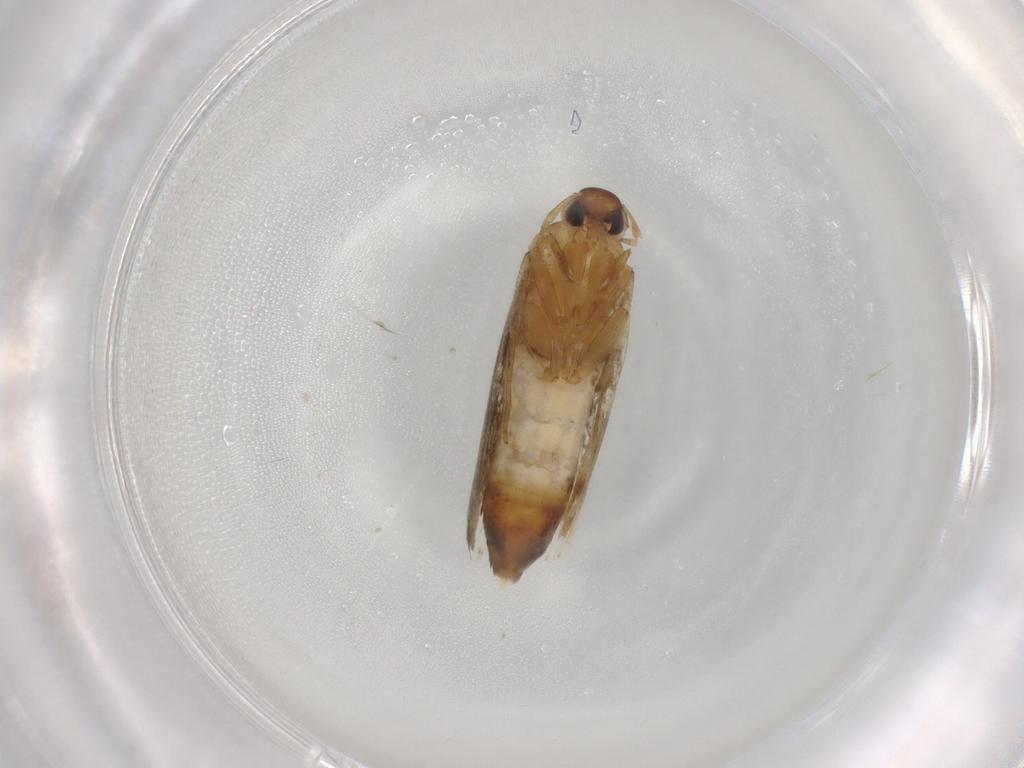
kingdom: Animalia
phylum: Arthropoda
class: Insecta
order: Lepidoptera
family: Cosmopterigidae
